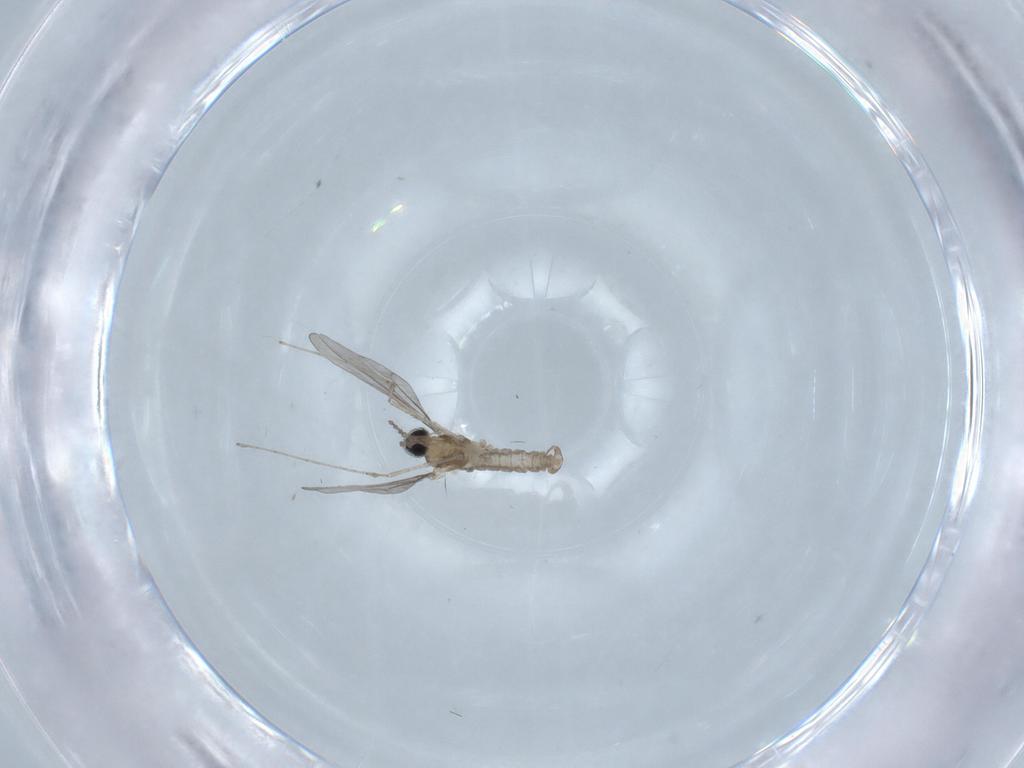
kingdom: Animalia
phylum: Arthropoda
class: Insecta
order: Diptera
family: Cecidomyiidae
